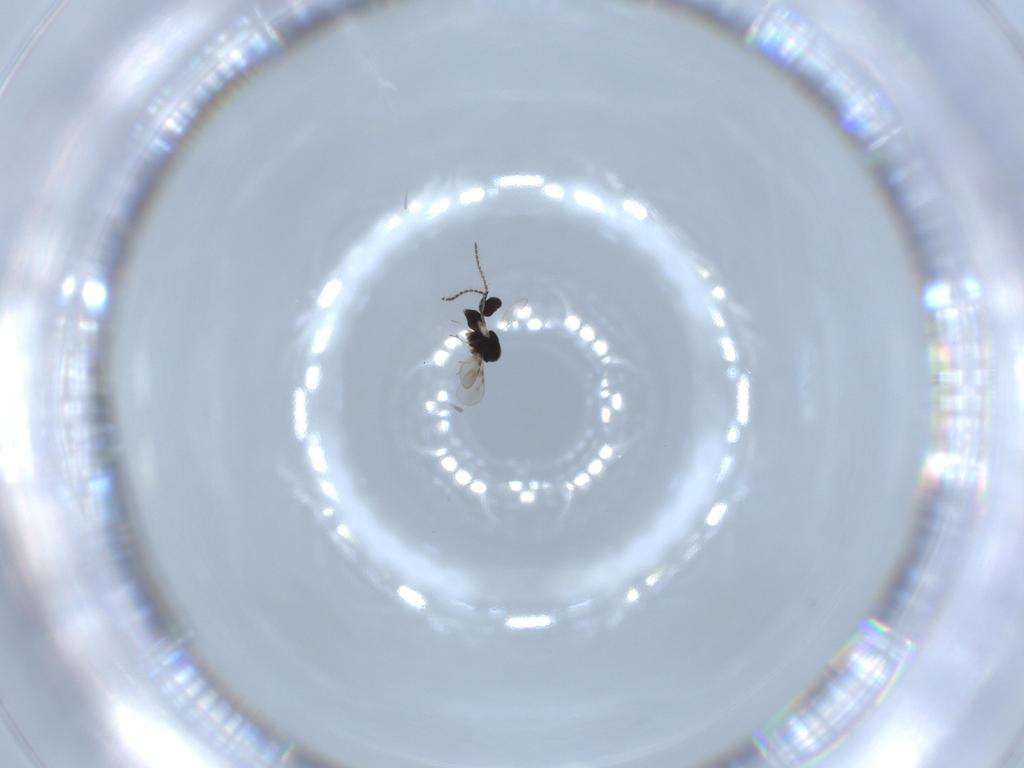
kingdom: Animalia
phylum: Arthropoda
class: Insecta
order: Hymenoptera
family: Ceraphronidae
